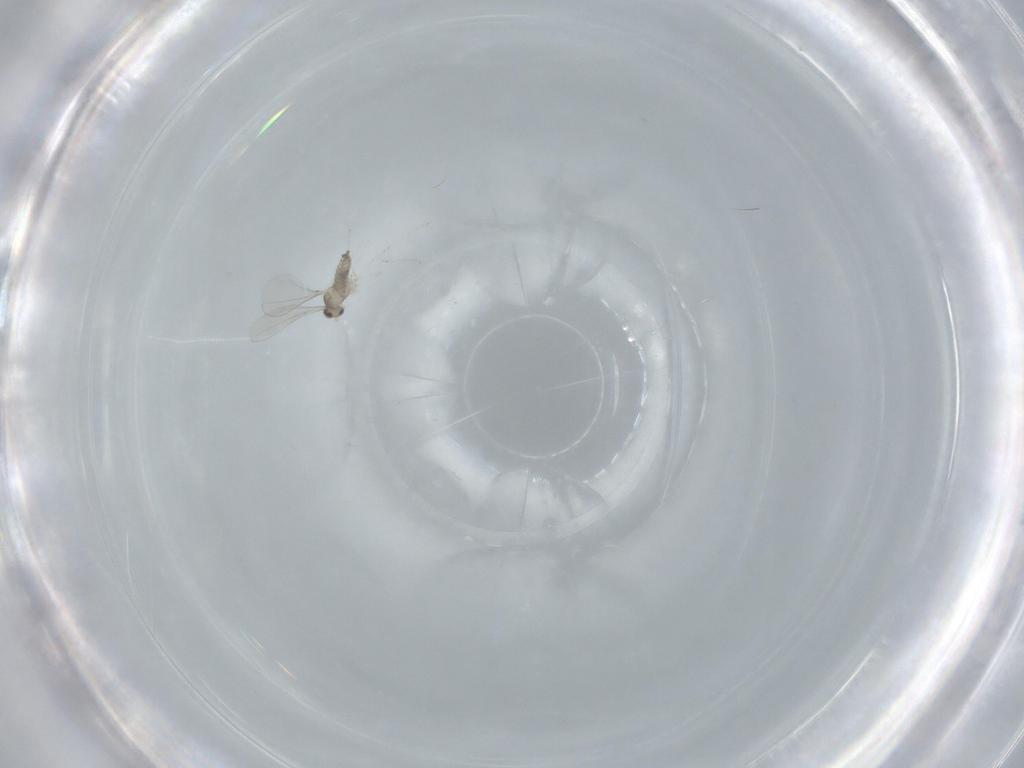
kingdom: Animalia
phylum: Arthropoda
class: Insecta
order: Diptera
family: Cecidomyiidae
